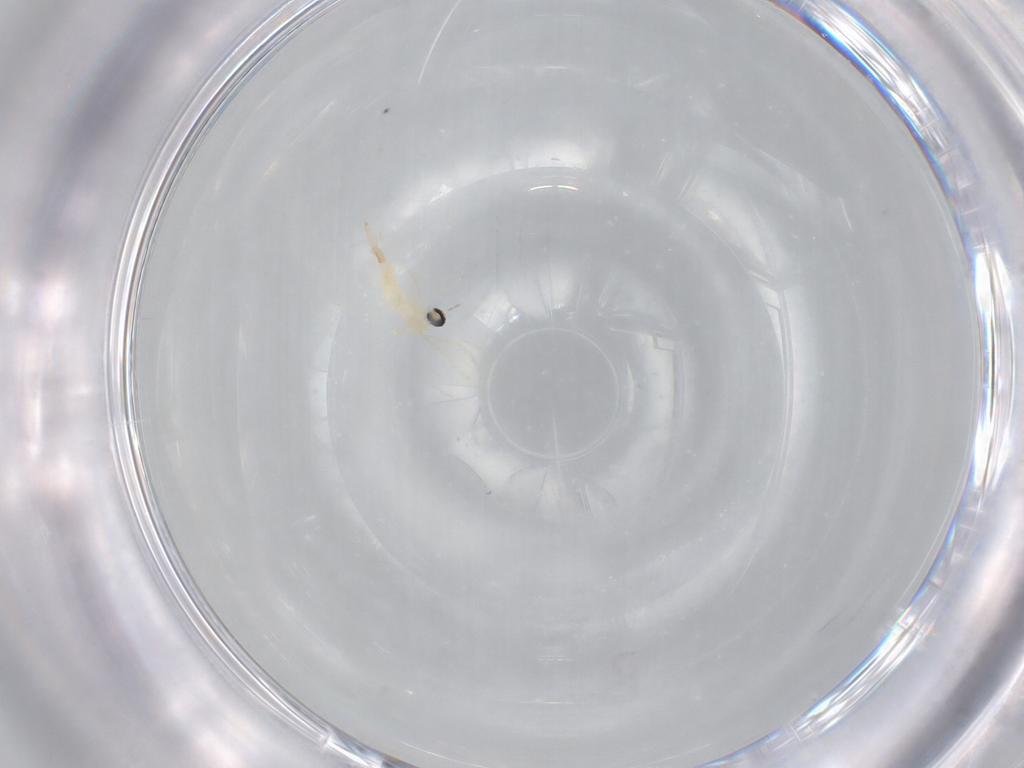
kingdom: Animalia
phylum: Arthropoda
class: Insecta
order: Diptera
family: Cecidomyiidae
